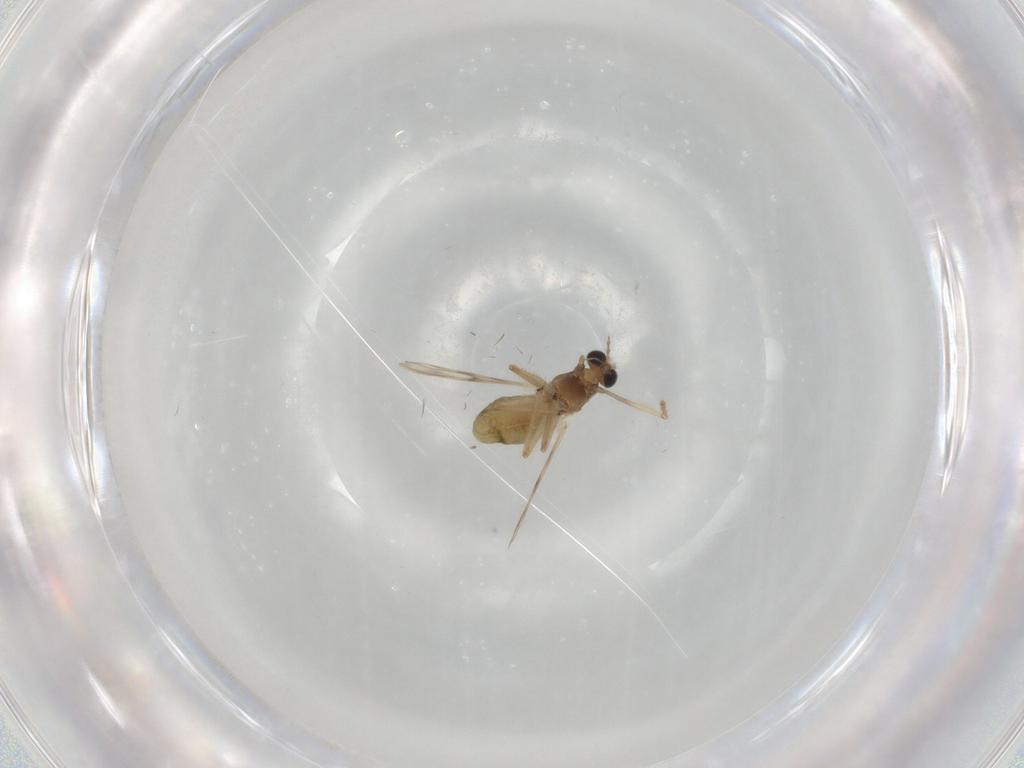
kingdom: Animalia
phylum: Arthropoda
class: Insecta
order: Diptera
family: Chironomidae
